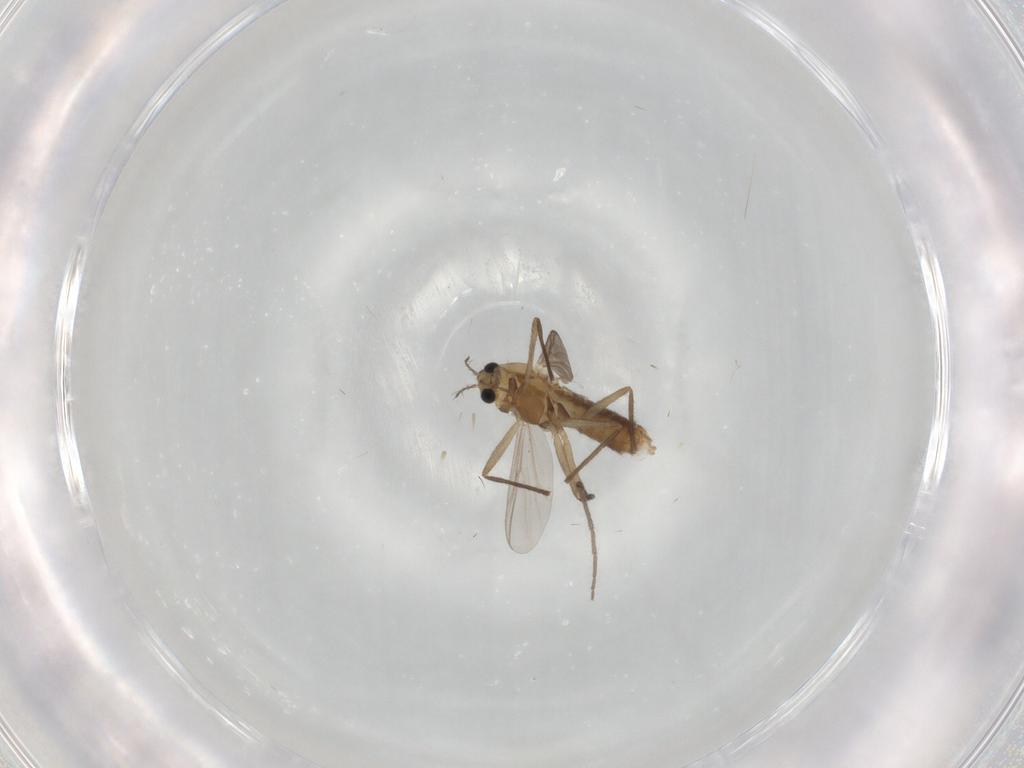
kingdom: Animalia
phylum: Arthropoda
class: Insecta
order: Diptera
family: Chironomidae
